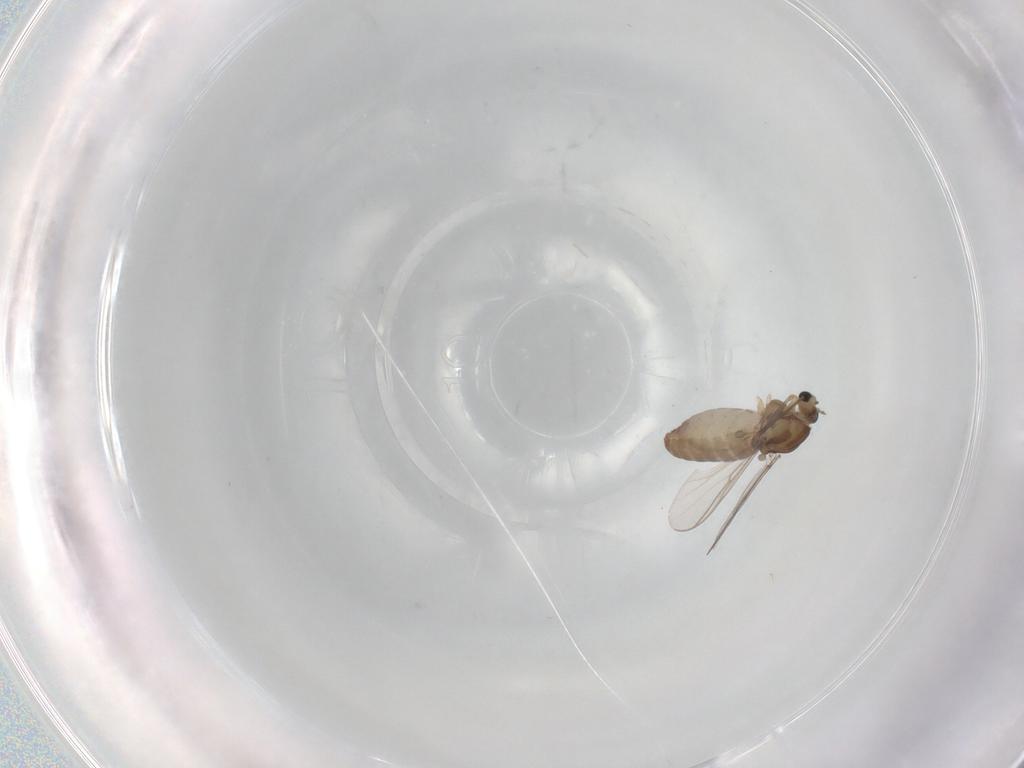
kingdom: Animalia
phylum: Arthropoda
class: Insecta
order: Diptera
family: Chironomidae
